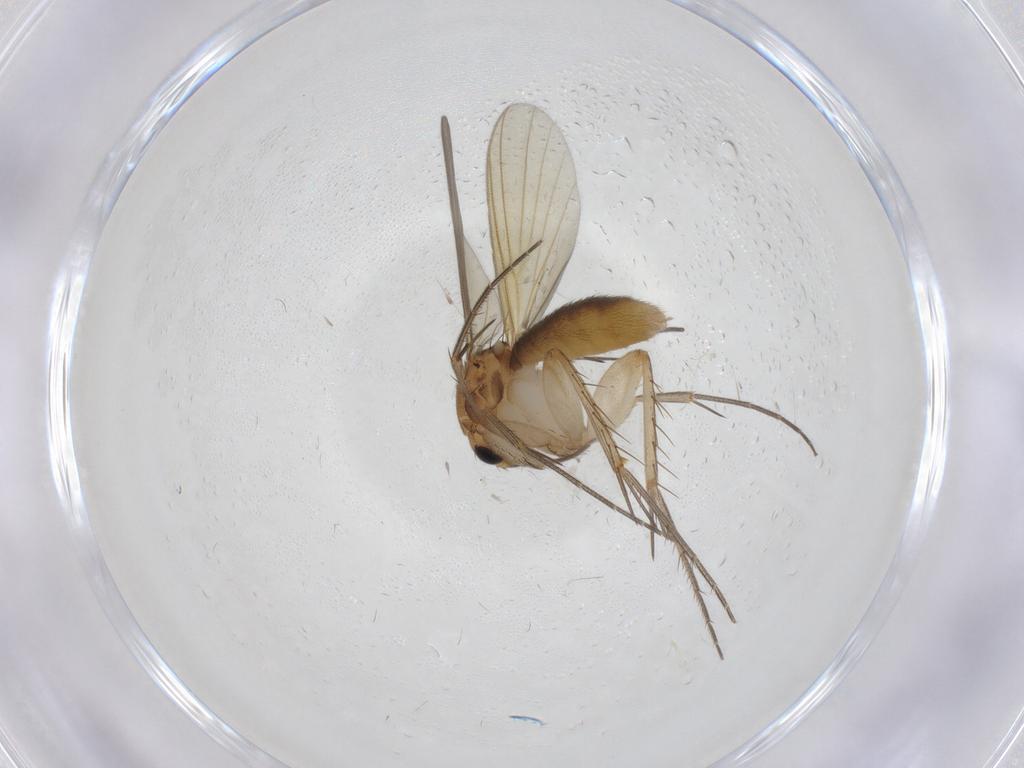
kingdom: Animalia
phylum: Arthropoda
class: Insecta
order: Diptera
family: Mycetophilidae
